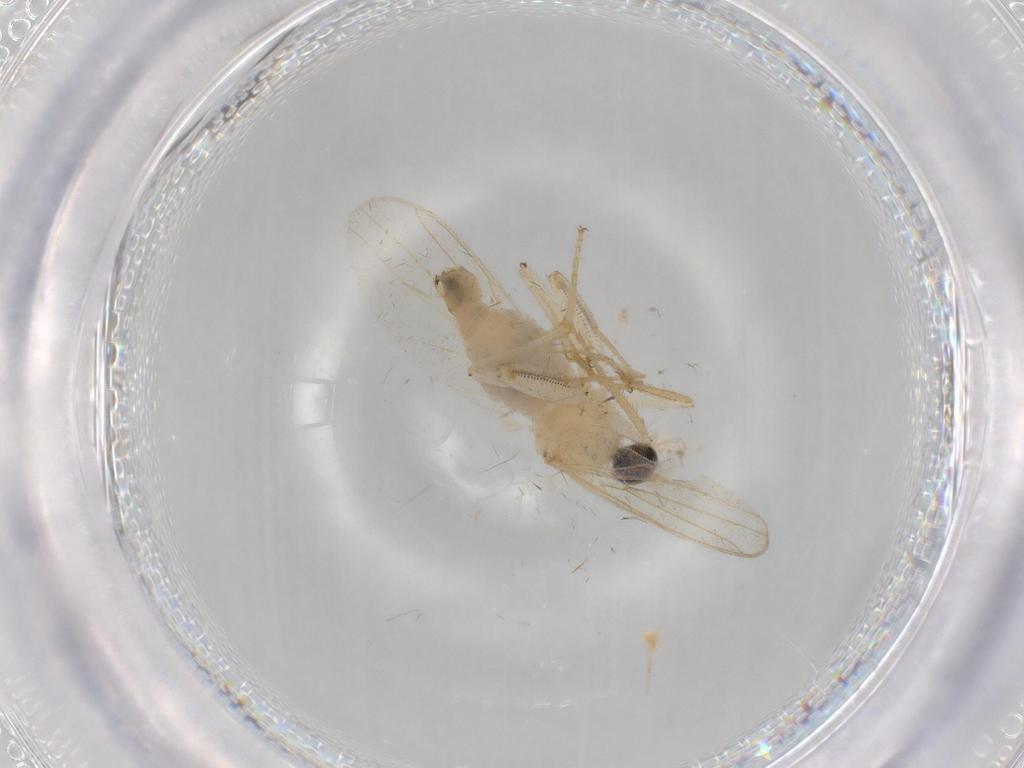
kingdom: Animalia
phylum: Arthropoda
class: Insecta
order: Diptera
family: Hybotidae
